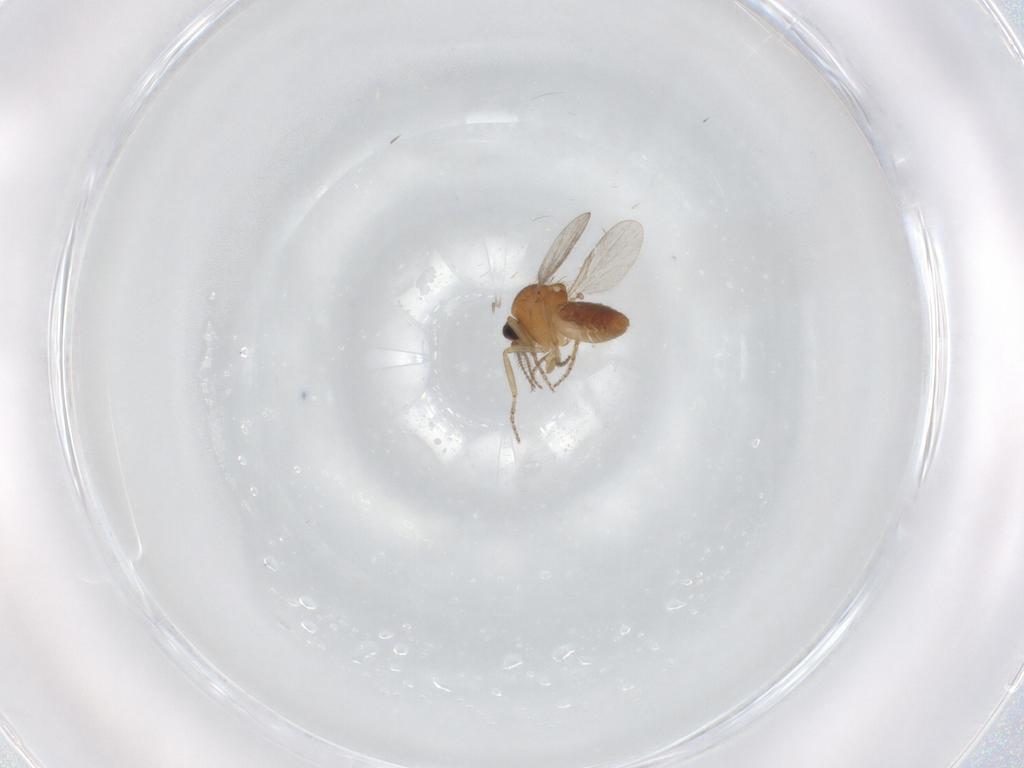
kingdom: Animalia
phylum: Arthropoda
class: Insecta
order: Diptera
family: Ceratopogonidae
